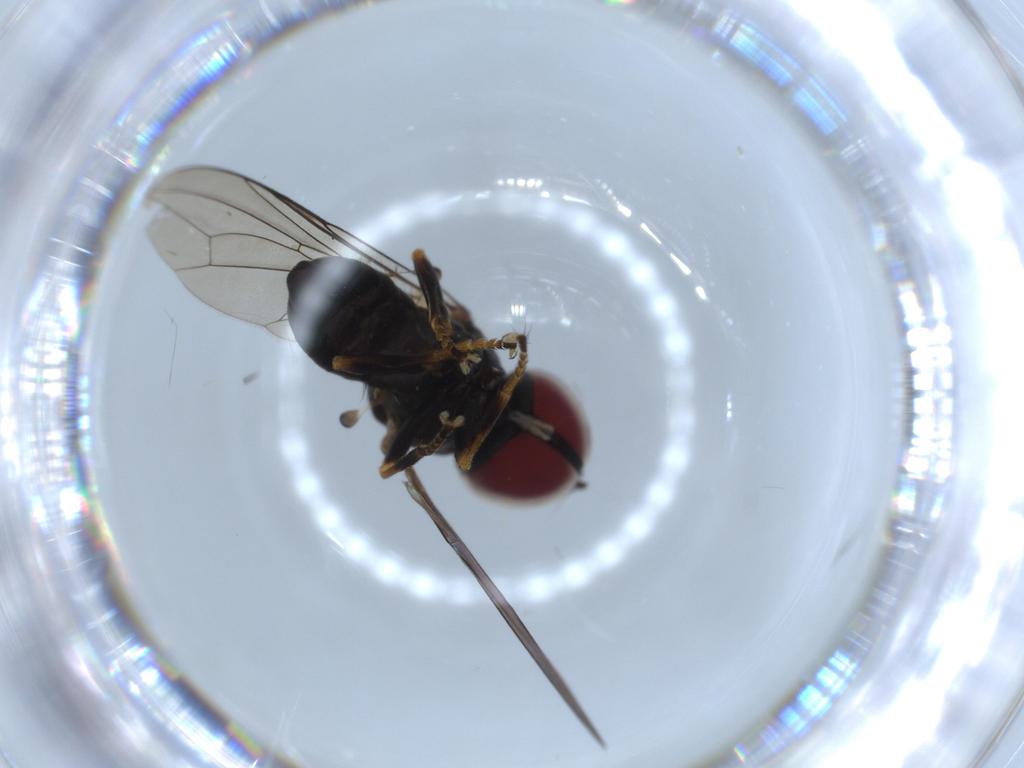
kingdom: Animalia
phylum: Arthropoda
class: Insecta
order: Diptera
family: Pipunculidae
